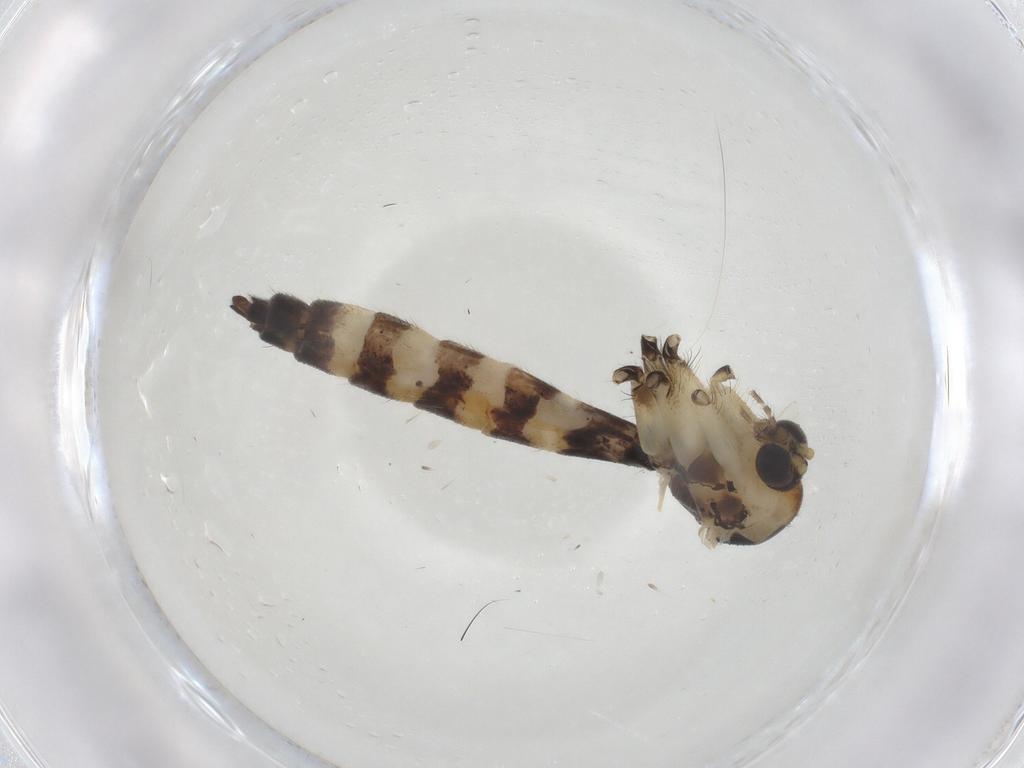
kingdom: Animalia
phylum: Arthropoda
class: Insecta
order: Diptera
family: Mycetophilidae
